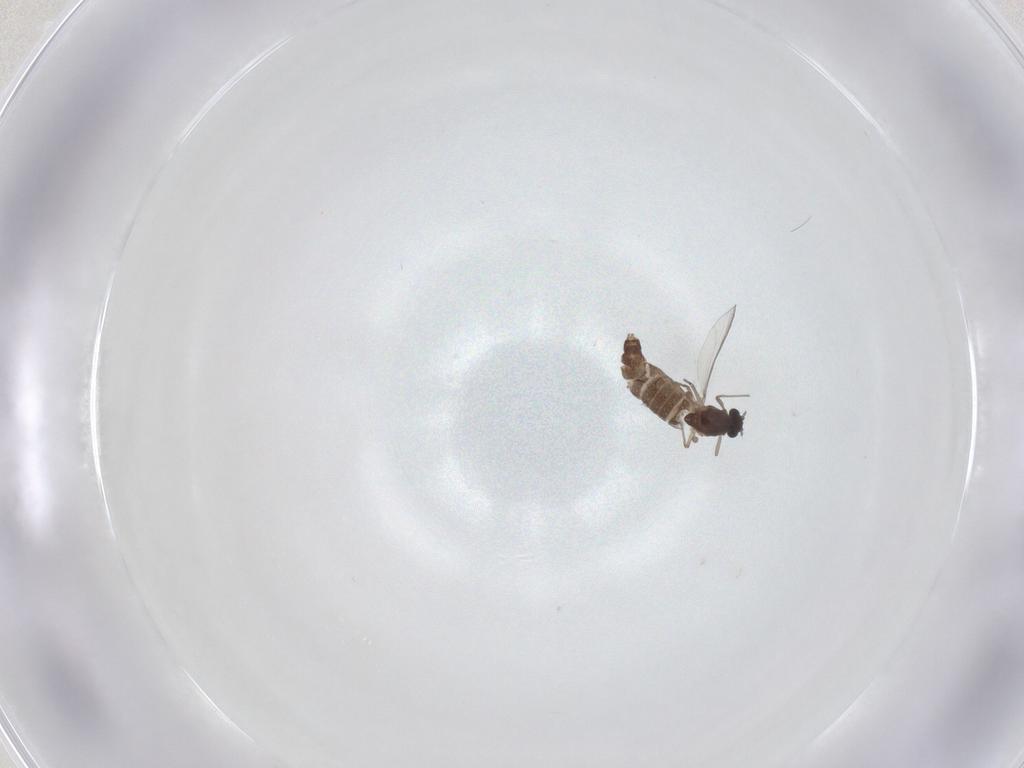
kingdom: Animalia
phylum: Arthropoda
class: Insecta
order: Diptera
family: Chironomidae
